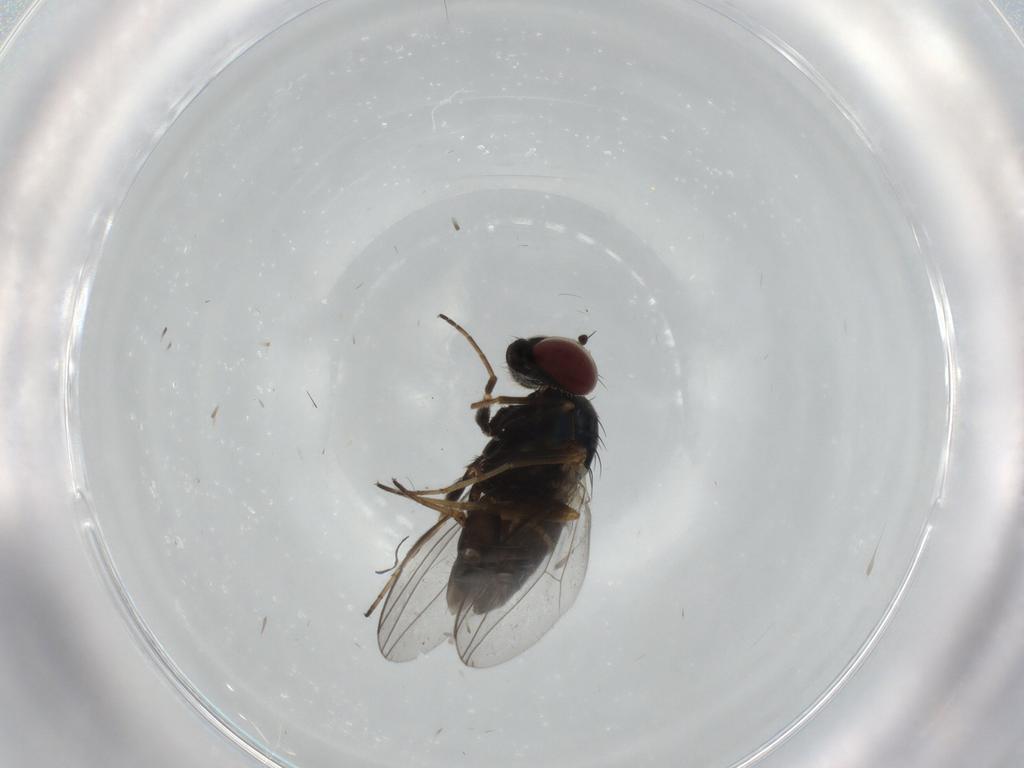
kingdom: Animalia
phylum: Arthropoda
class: Insecta
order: Diptera
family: Dolichopodidae
